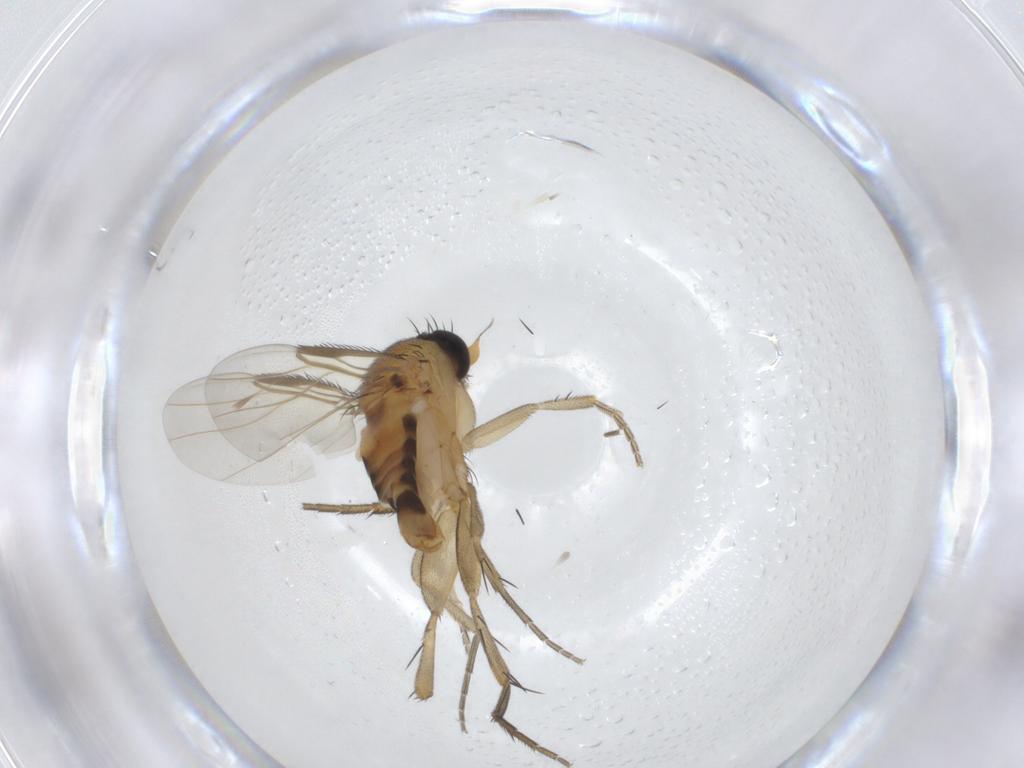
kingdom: Animalia
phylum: Arthropoda
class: Insecta
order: Diptera
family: Phoridae
